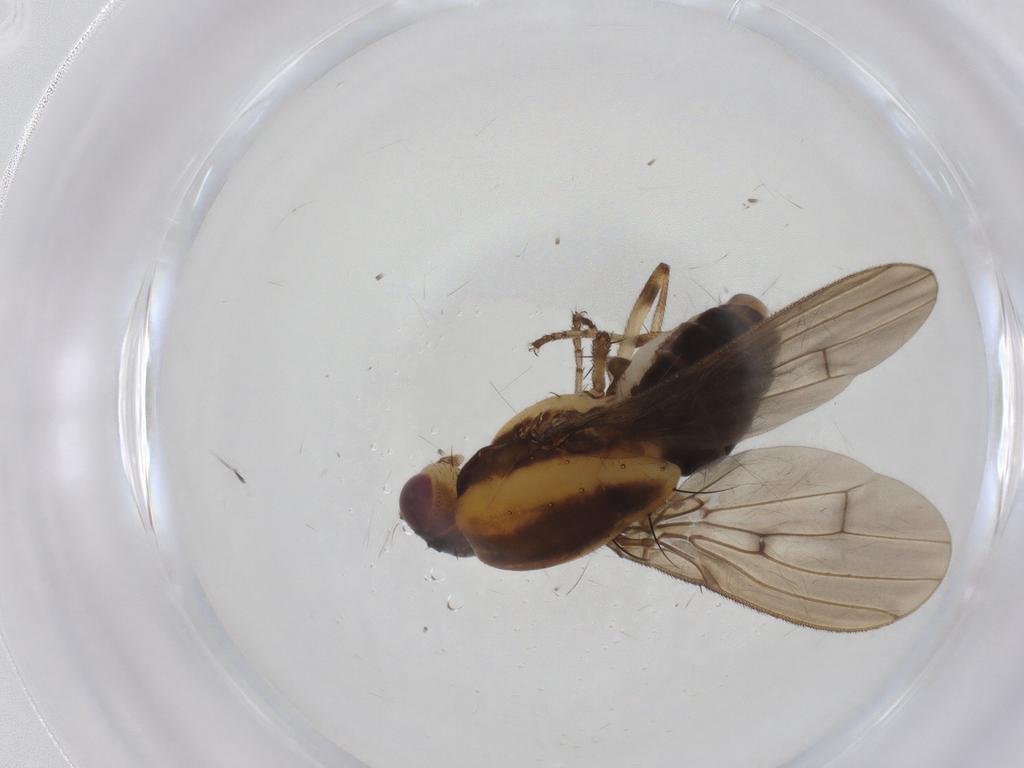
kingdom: Animalia
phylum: Arthropoda
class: Insecta
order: Diptera
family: Heleomyzidae
